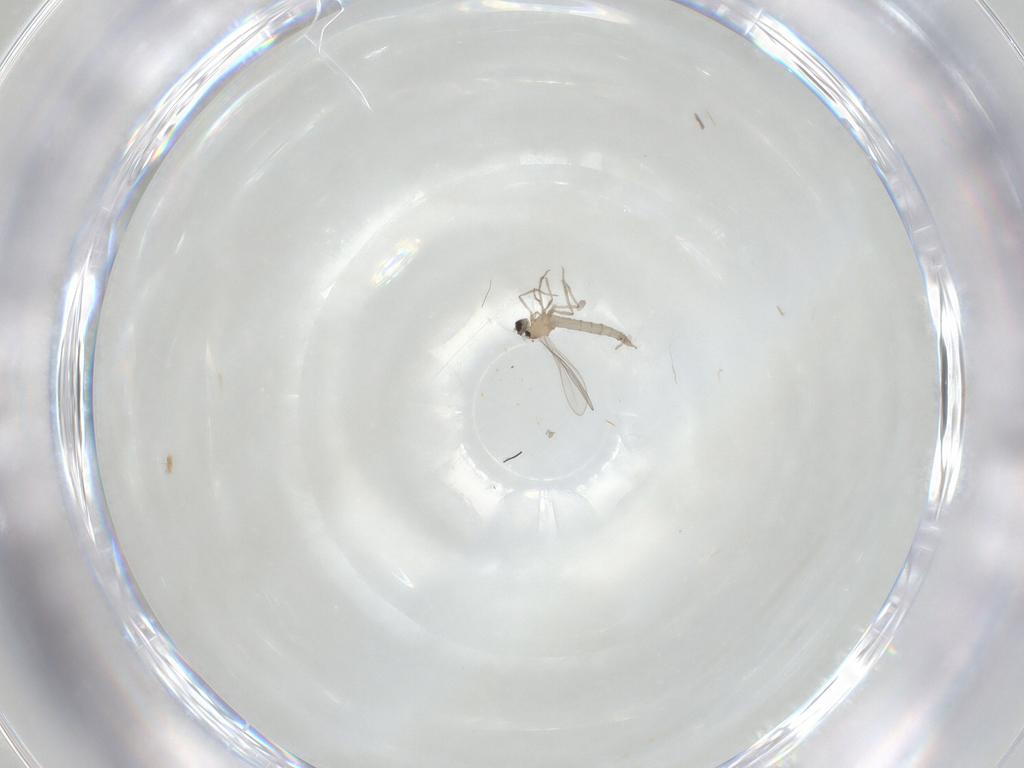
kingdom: Animalia
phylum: Arthropoda
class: Insecta
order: Diptera
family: Cecidomyiidae
